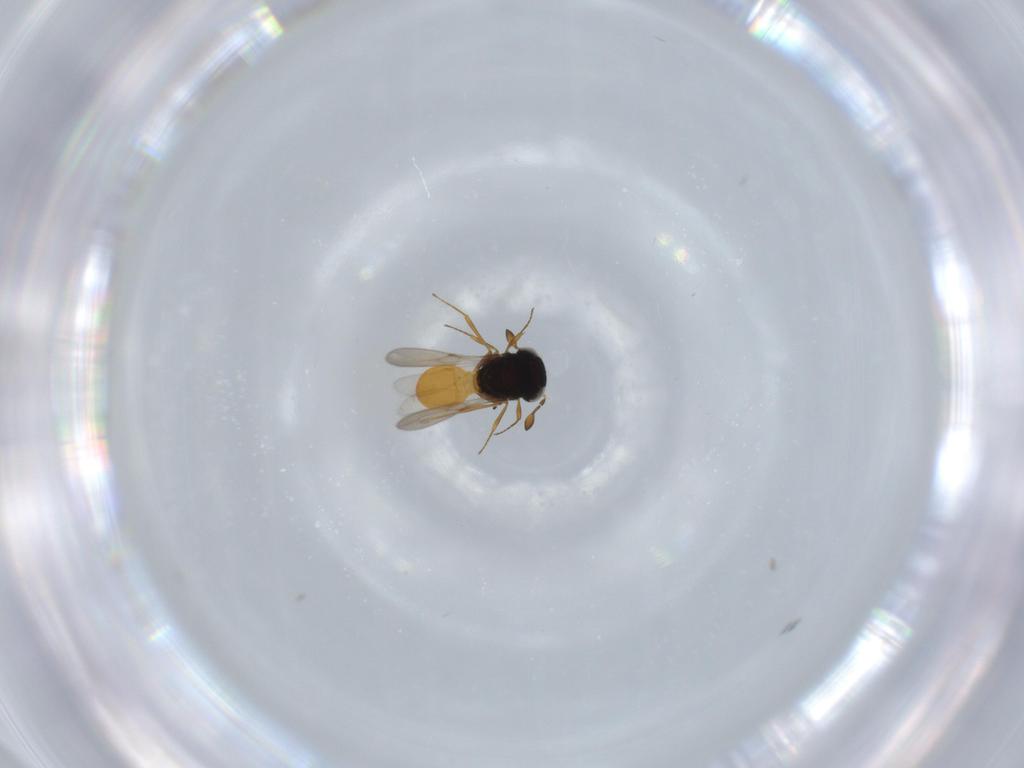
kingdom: Animalia
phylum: Arthropoda
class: Insecta
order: Hymenoptera
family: Scelionidae
